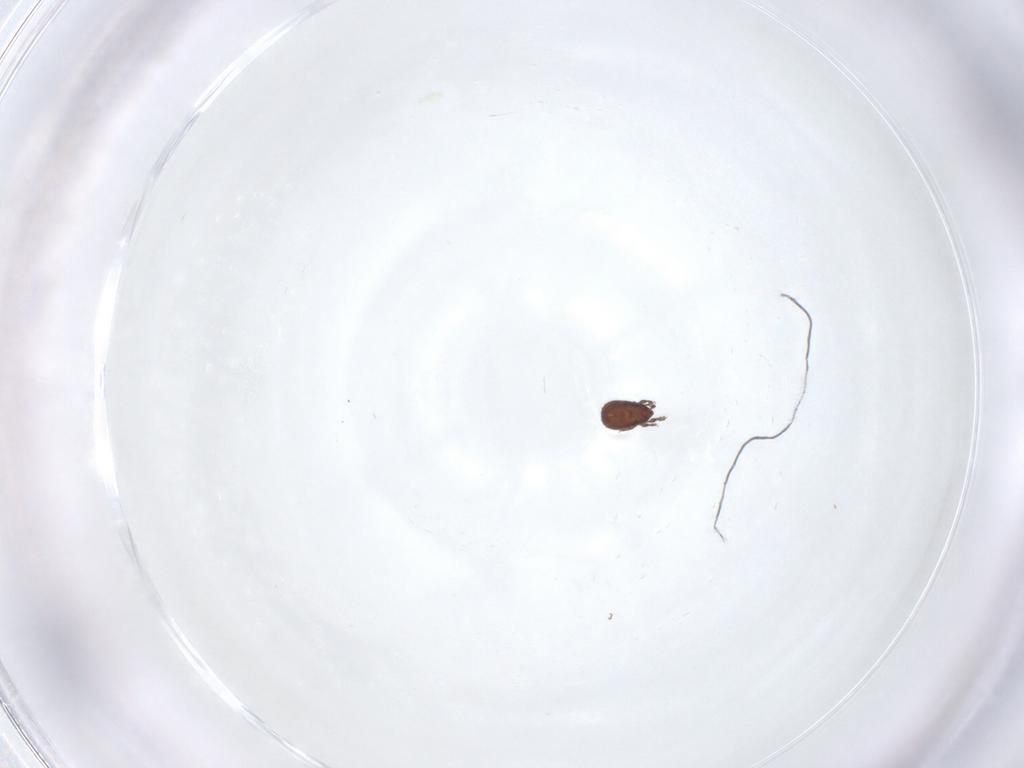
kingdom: Animalia
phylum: Arthropoda
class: Arachnida
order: Sarcoptiformes
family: Cymbaeremaeidae
